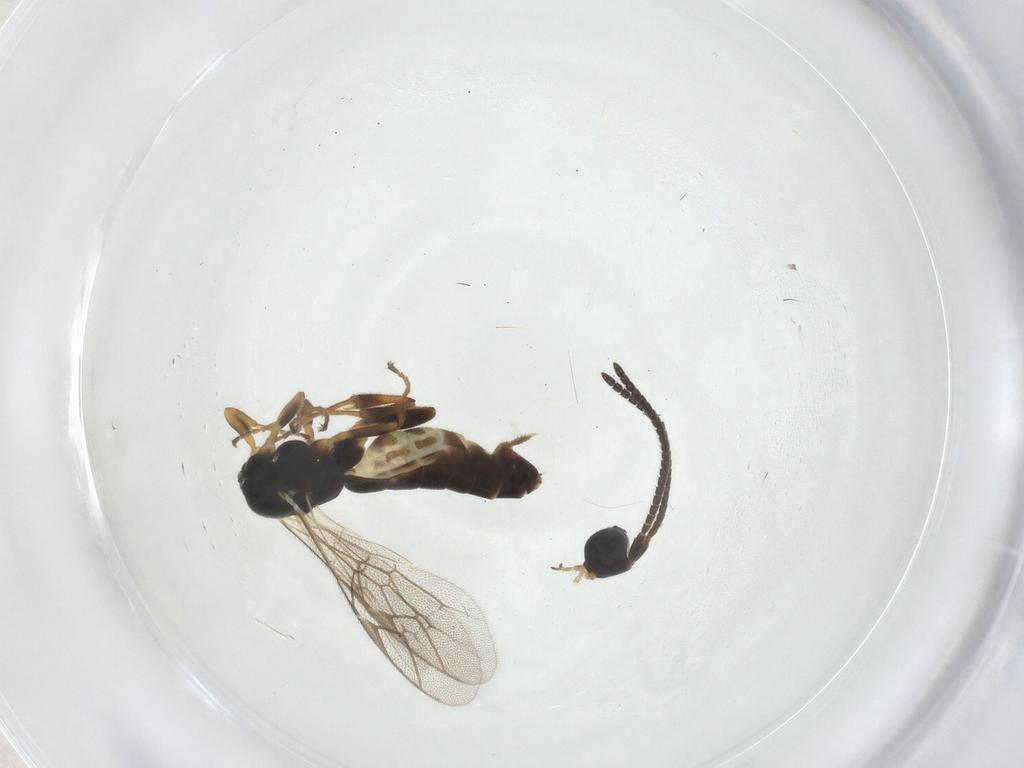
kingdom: Animalia
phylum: Arthropoda
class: Insecta
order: Hymenoptera
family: Ichneumonidae
